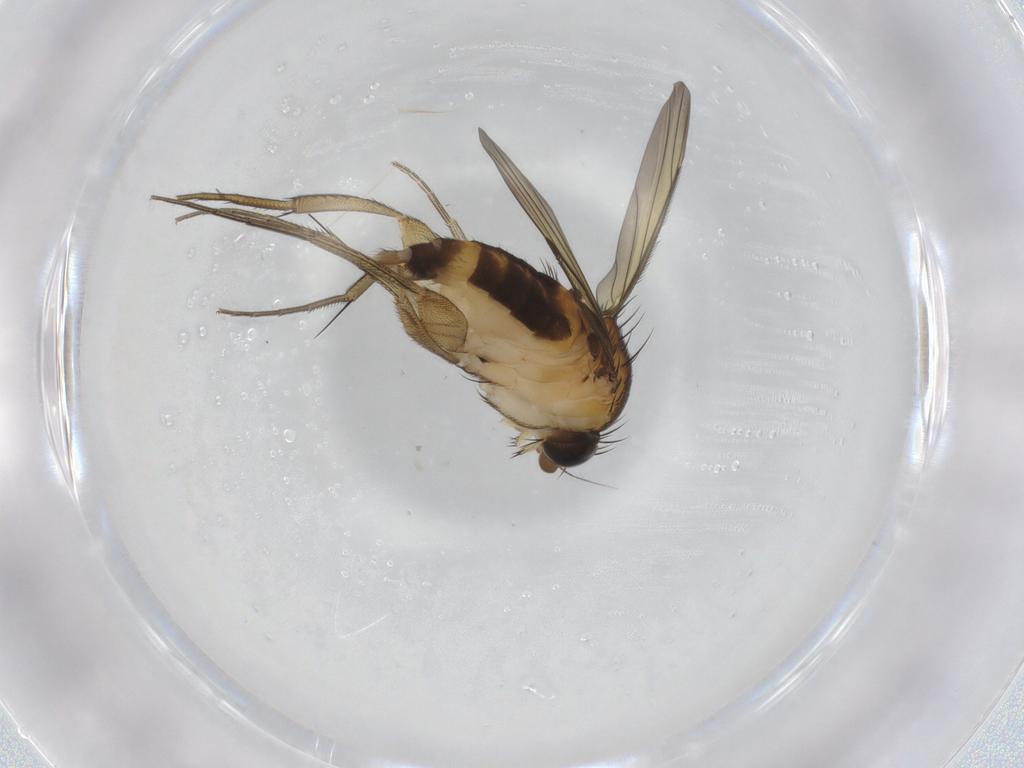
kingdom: Animalia
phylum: Arthropoda
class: Insecta
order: Diptera
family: Phoridae
